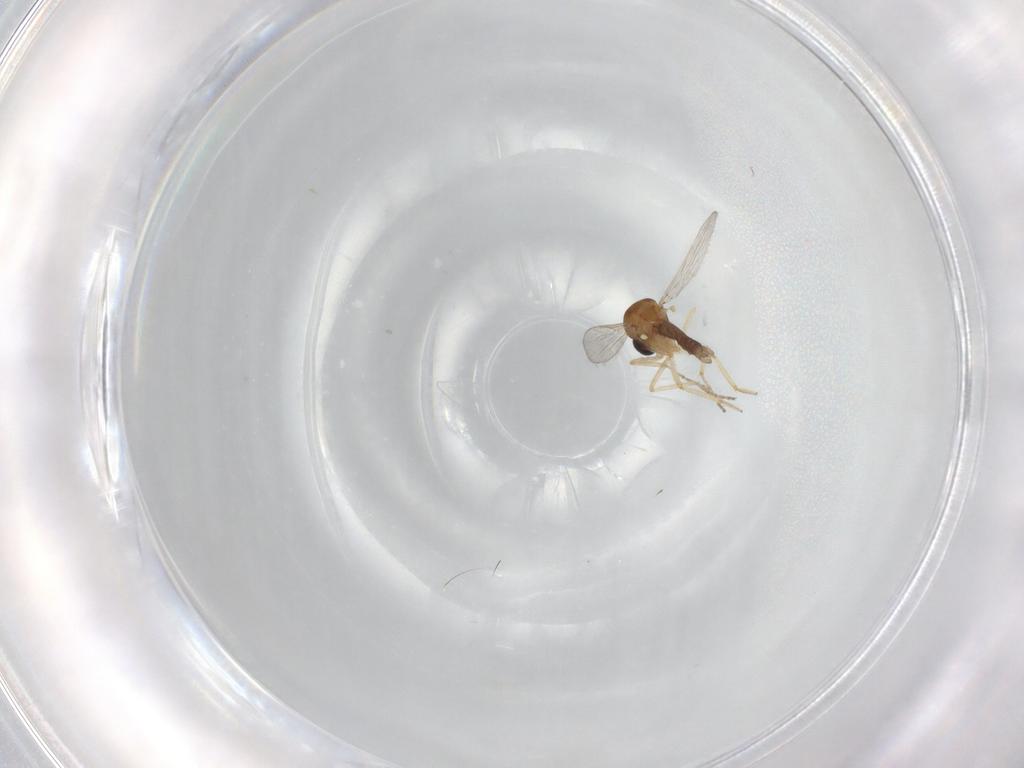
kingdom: Animalia
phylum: Arthropoda
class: Insecta
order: Diptera
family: Ceratopogonidae
